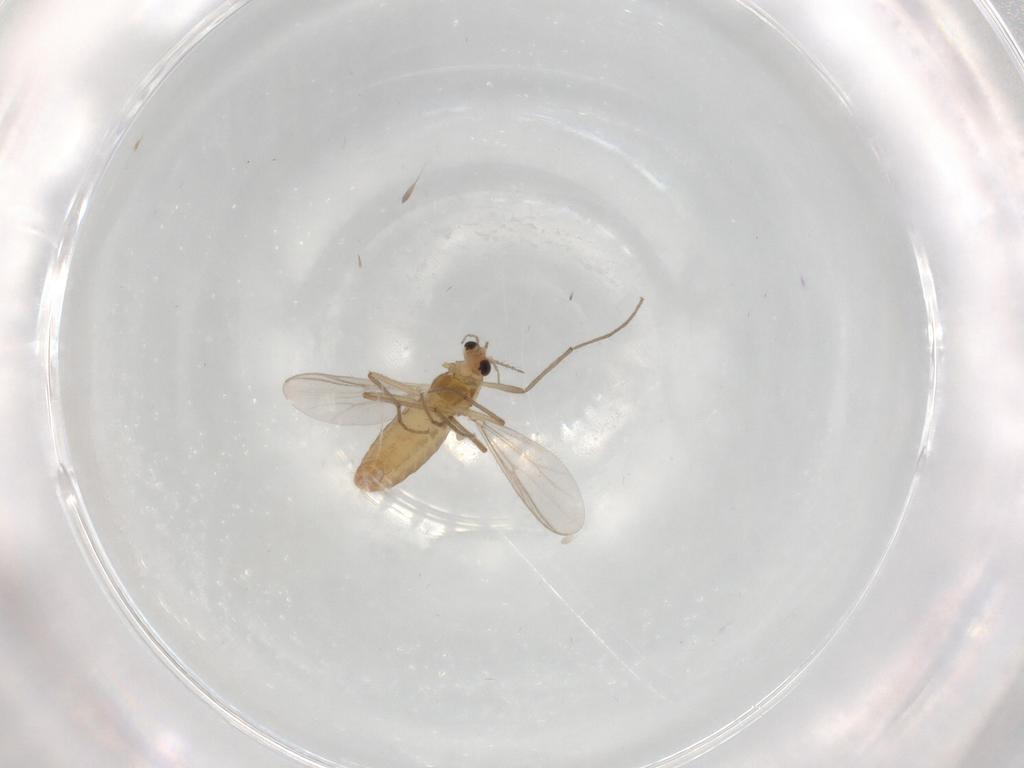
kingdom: Animalia
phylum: Arthropoda
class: Insecta
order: Diptera
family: Chironomidae
